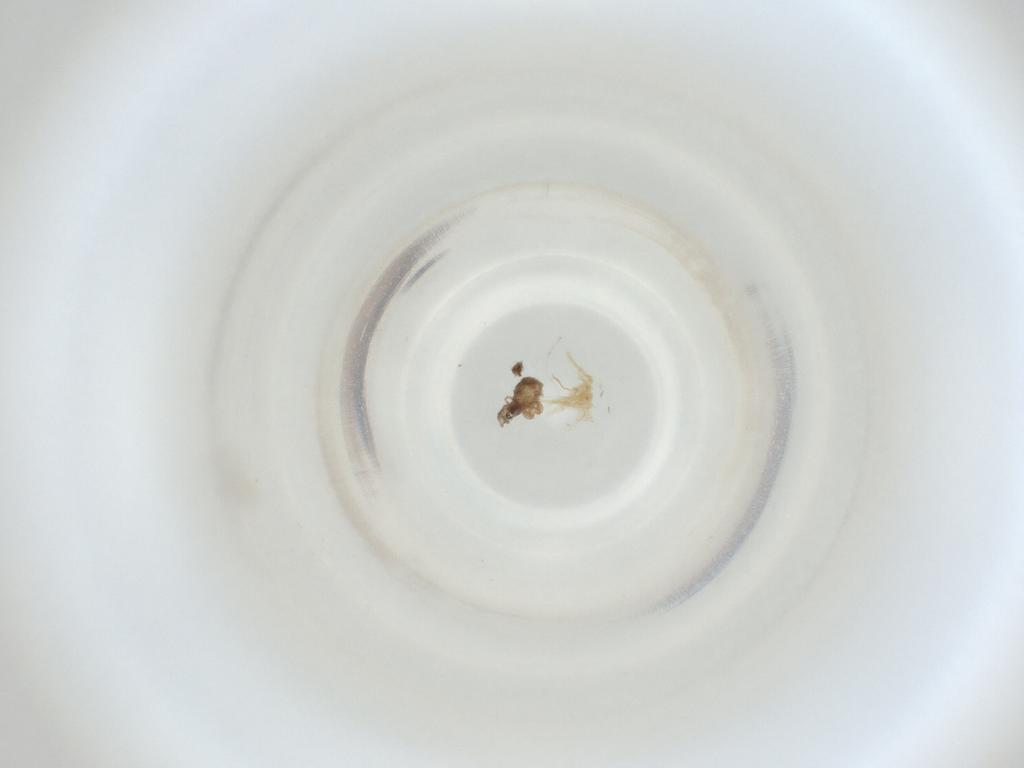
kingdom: Animalia
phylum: Arthropoda
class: Insecta
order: Diptera
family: Cecidomyiidae
